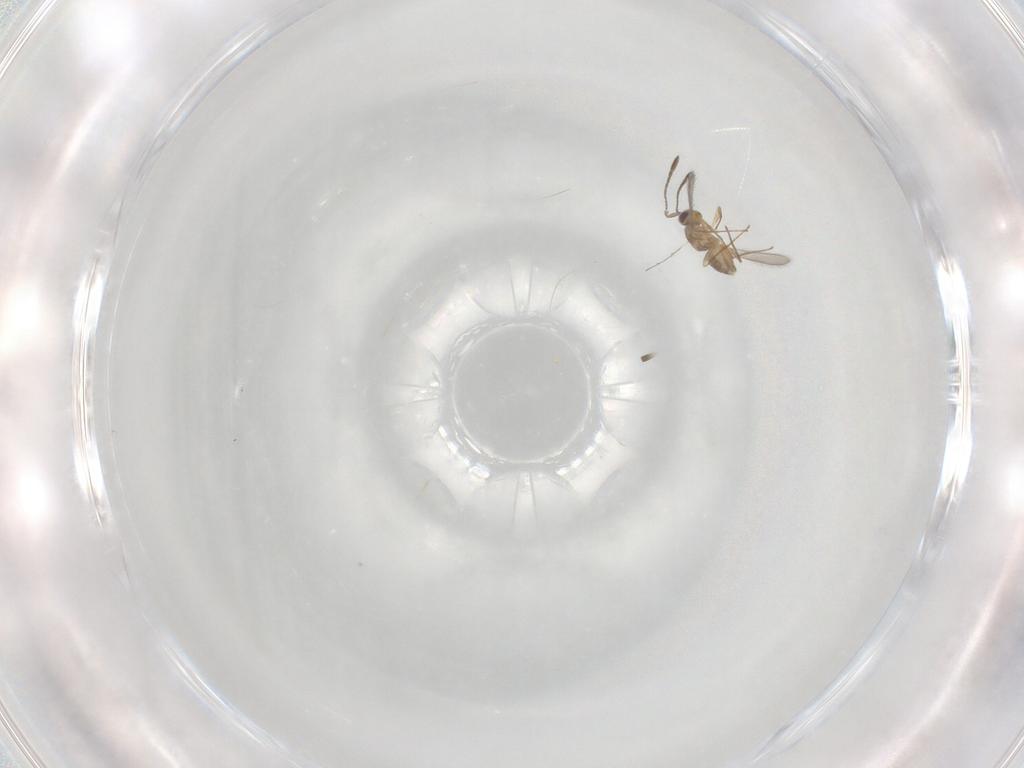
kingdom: Animalia
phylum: Arthropoda
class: Insecta
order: Hymenoptera
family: Mymaridae
